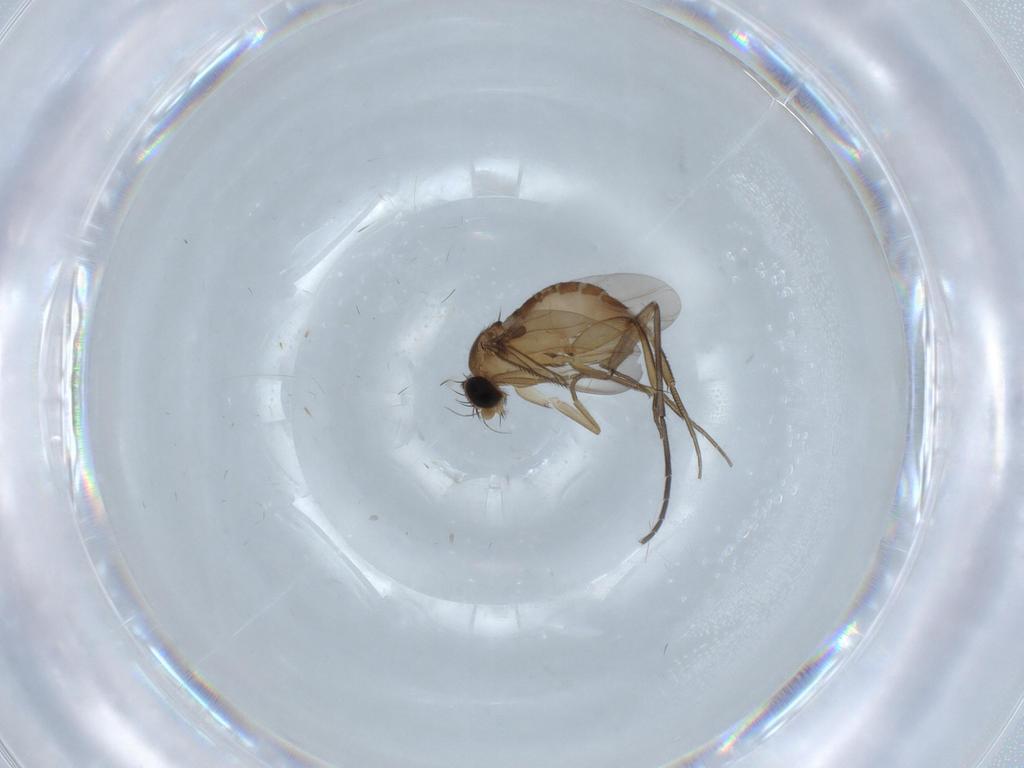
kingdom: Animalia
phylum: Arthropoda
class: Insecta
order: Diptera
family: Sciaridae
